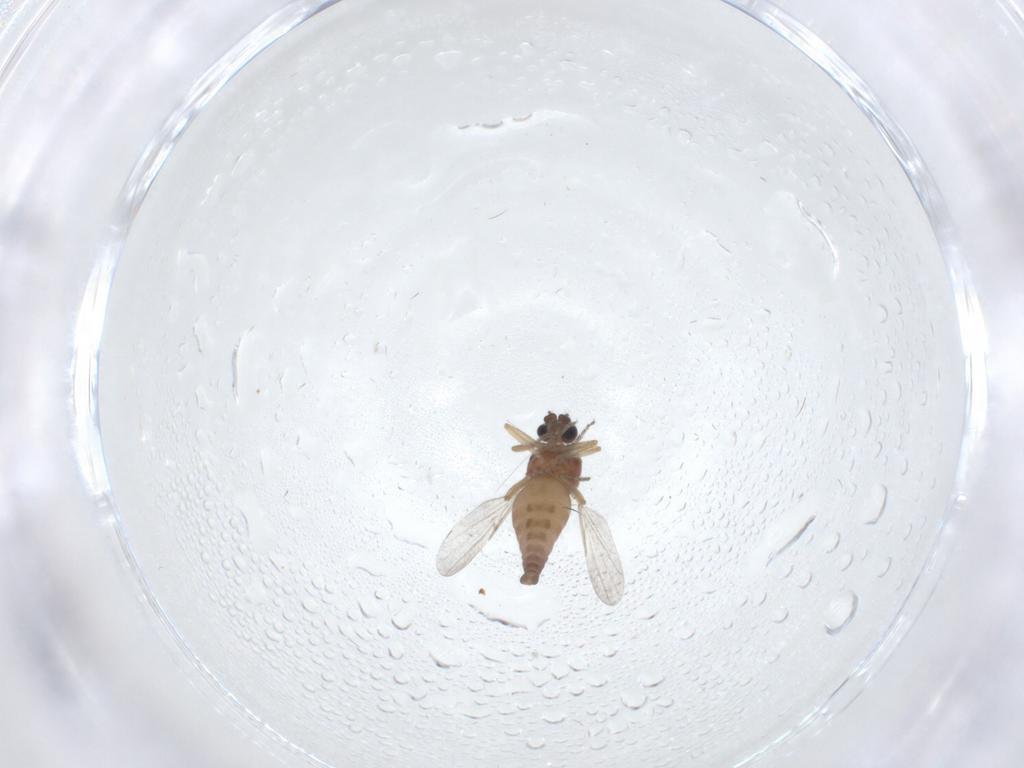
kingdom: Animalia
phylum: Arthropoda
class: Insecta
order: Diptera
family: Ceratopogonidae
